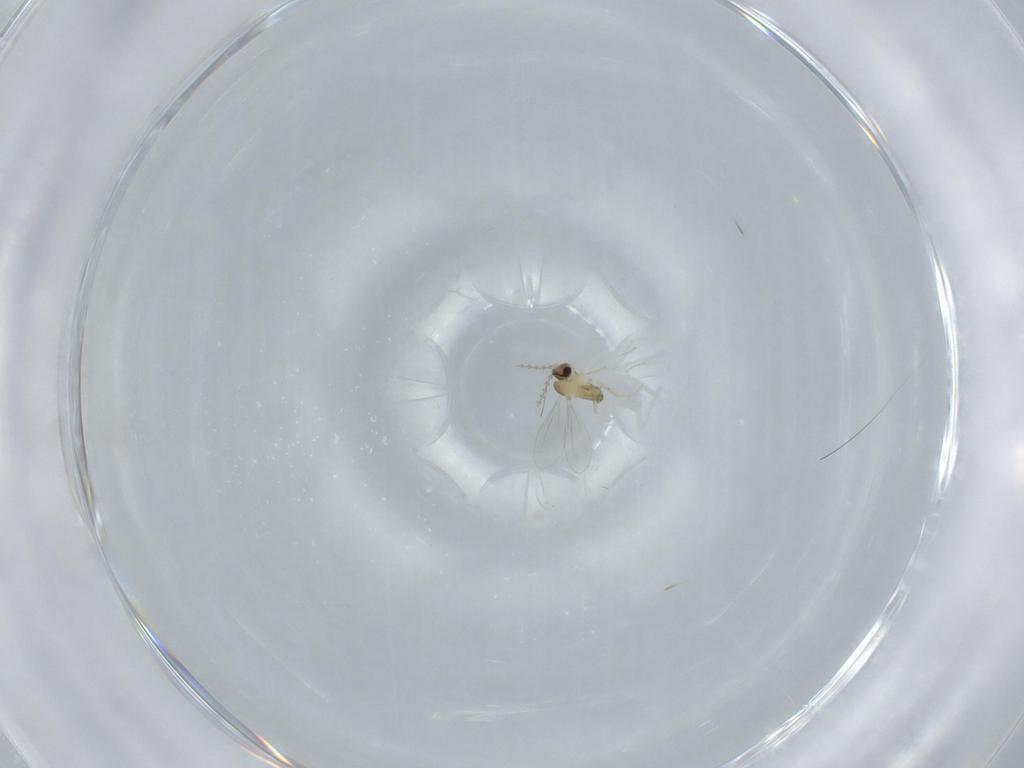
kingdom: Animalia
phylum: Arthropoda
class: Insecta
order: Diptera
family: Cecidomyiidae
